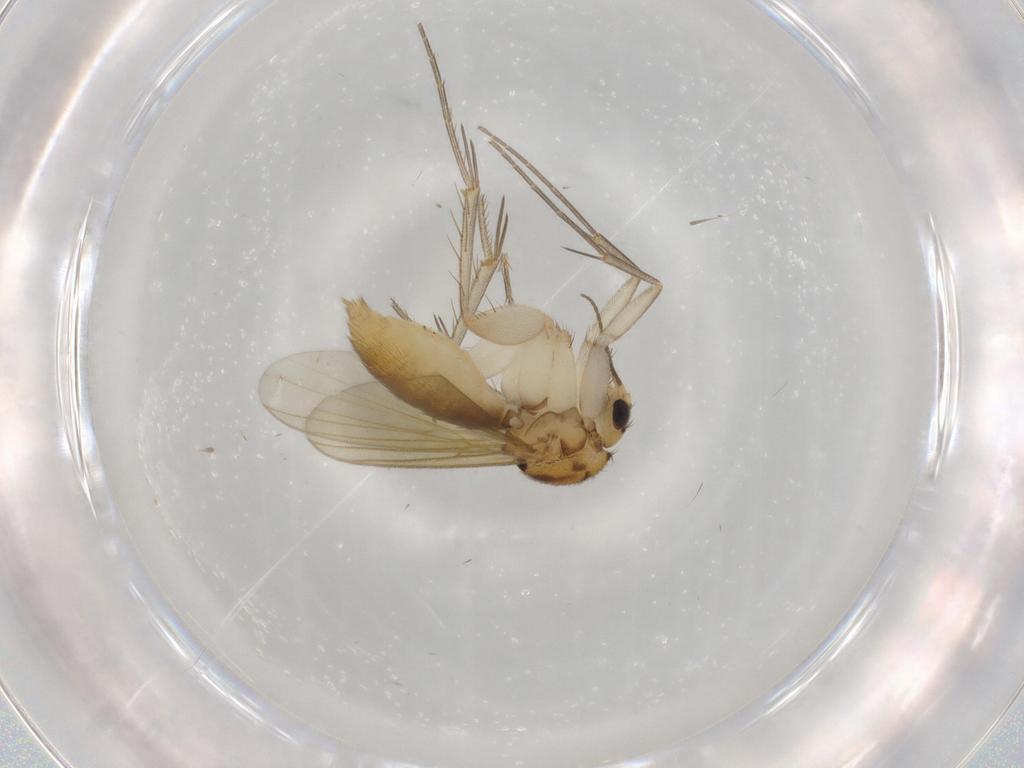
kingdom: Animalia
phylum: Arthropoda
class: Insecta
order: Diptera
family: Mycetophilidae
